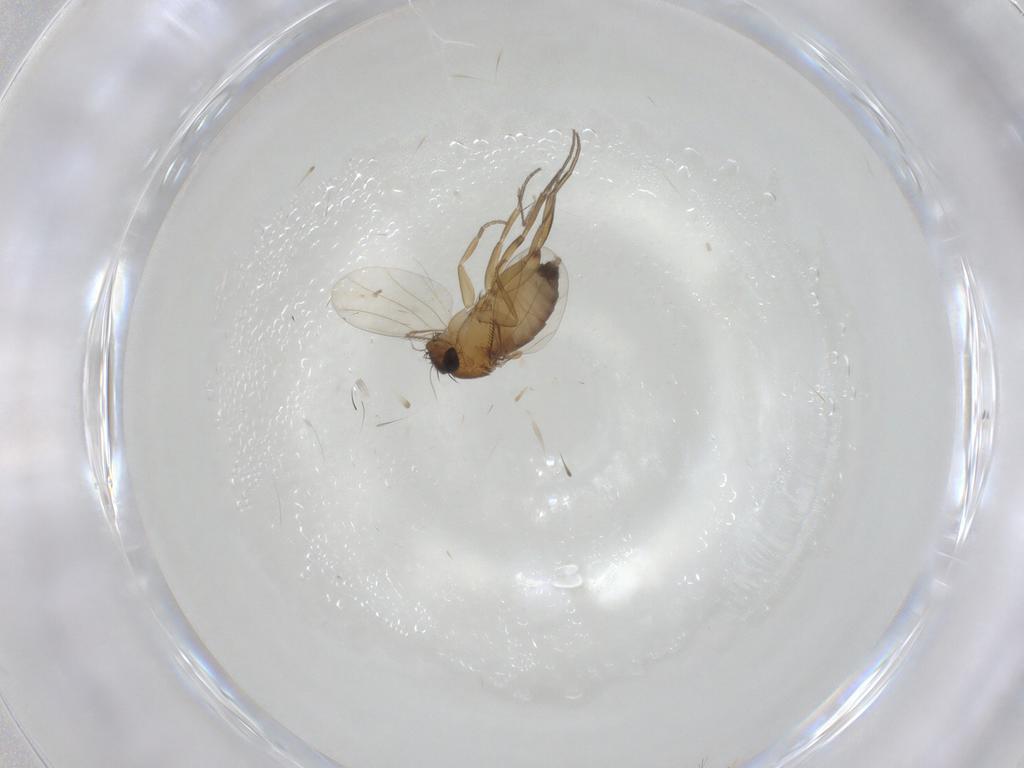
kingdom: Animalia
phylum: Arthropoda
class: Insecta
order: Diptera
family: Phoridae
